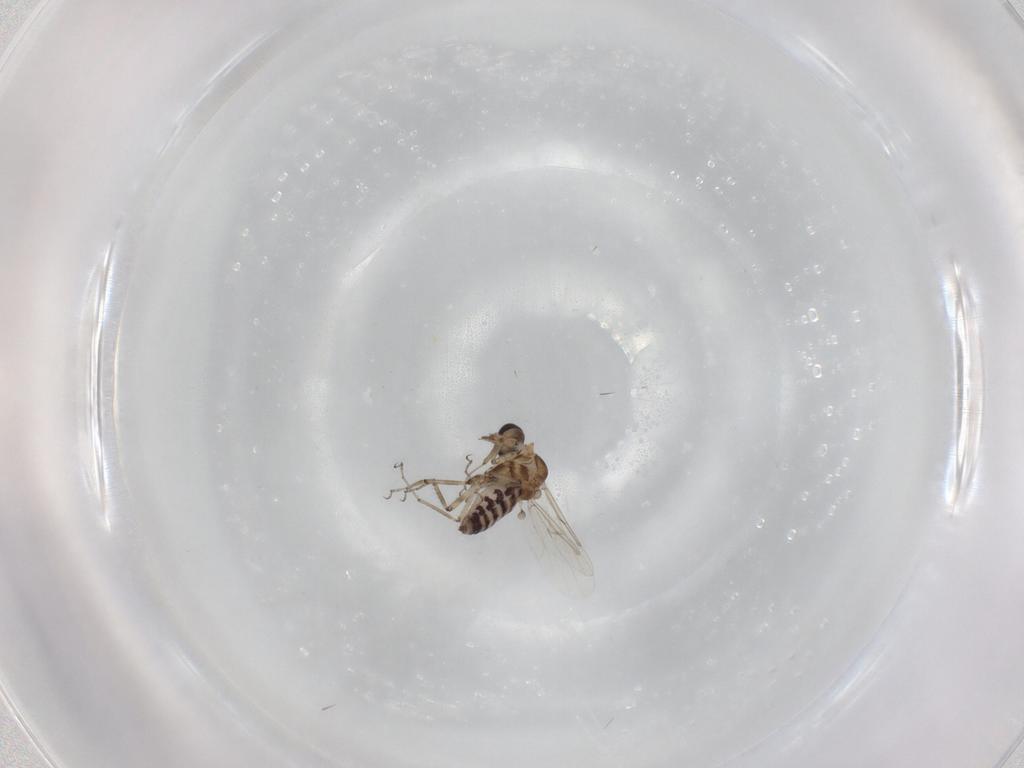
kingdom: Animalia
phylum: Arthropoda
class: Insecta
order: Diptera
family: Ceratopogonidae
